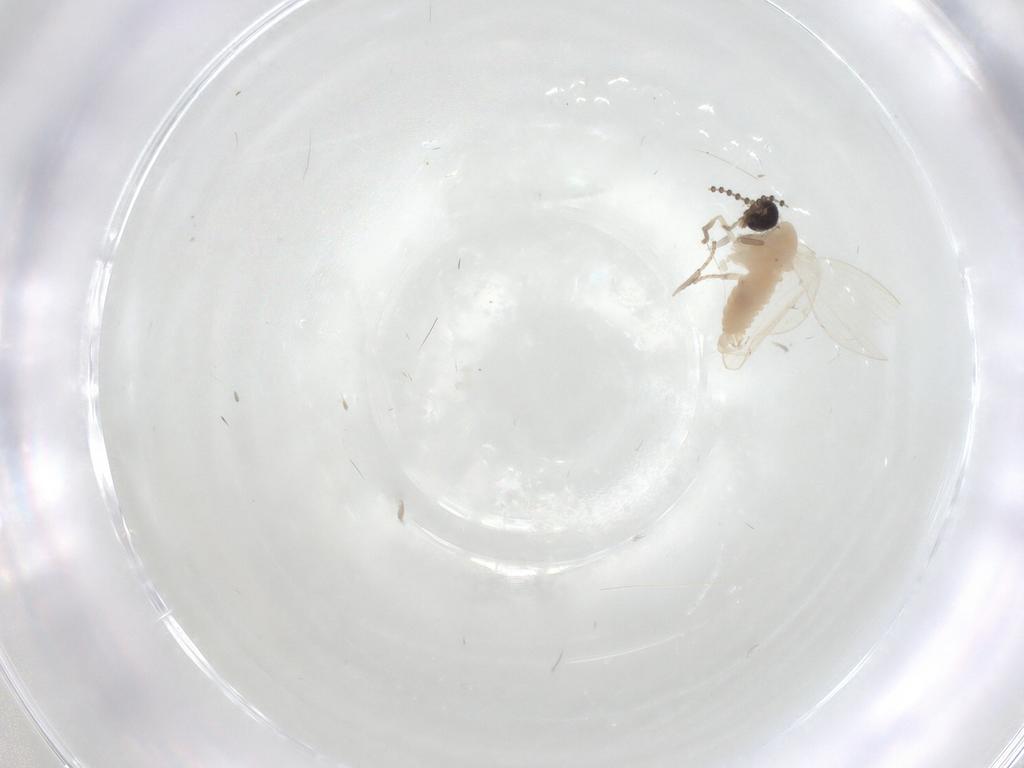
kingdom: Animalia
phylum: Arthropoda
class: Insecta
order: Diptera
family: Psychodidae
